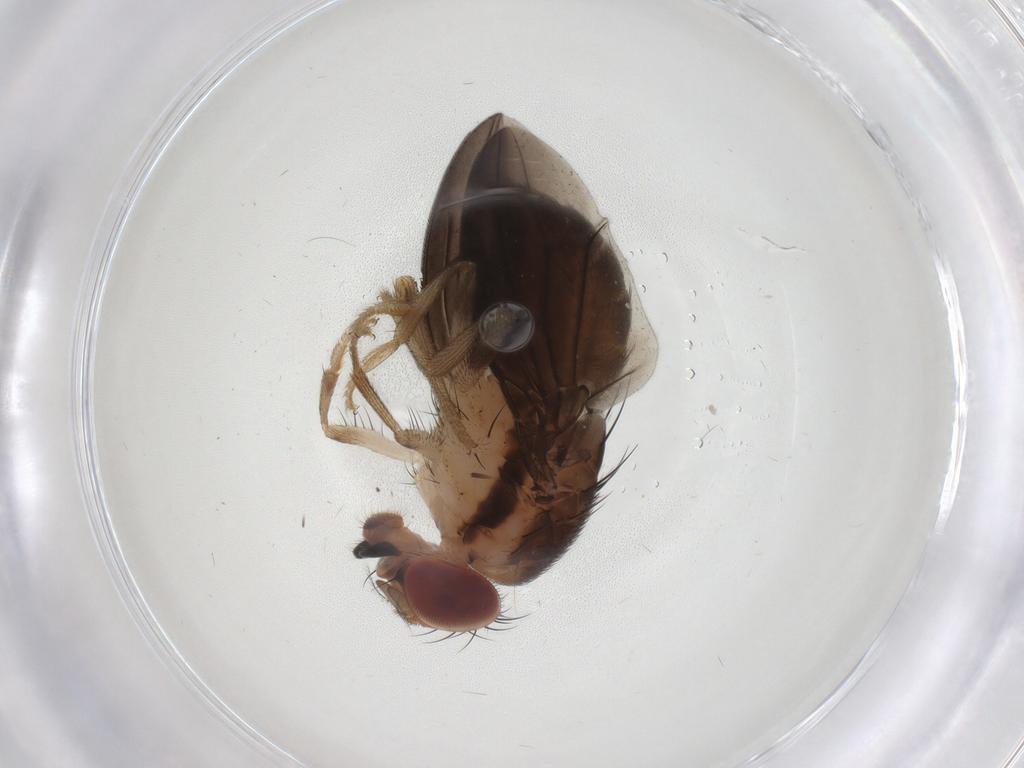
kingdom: Animalia
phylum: Arthropoda
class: Insecta
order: Diptera
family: Drosophilidae
